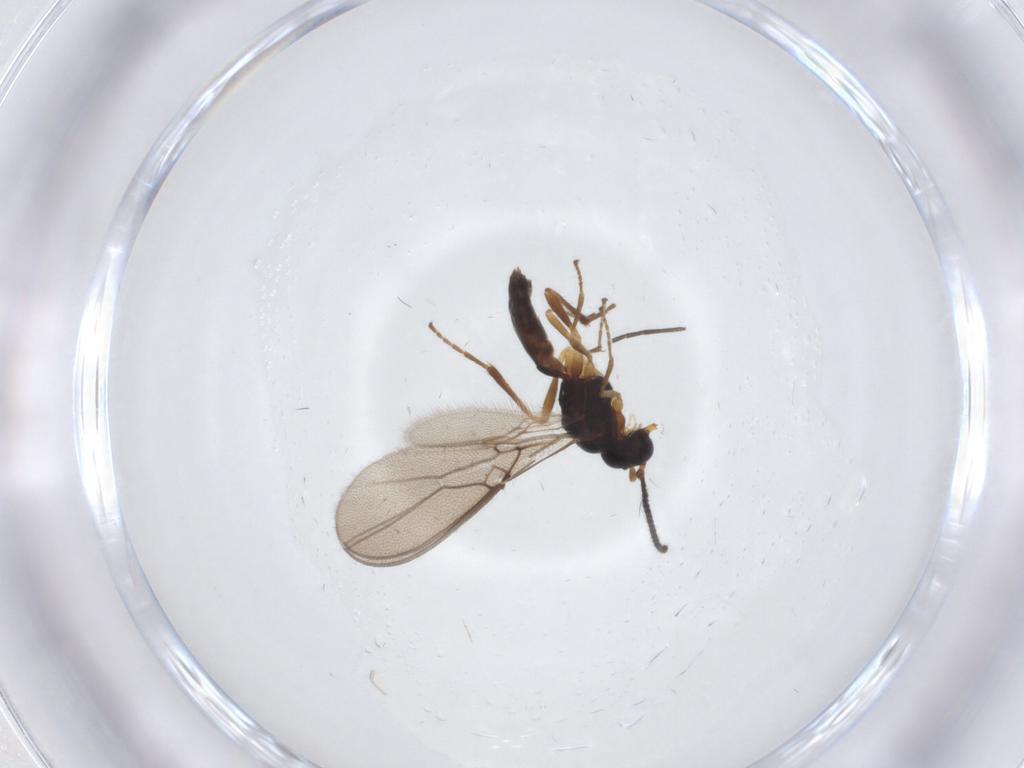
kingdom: Animalia
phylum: Arthropoda
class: Insecta
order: Hymenoptera
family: Braconidae
